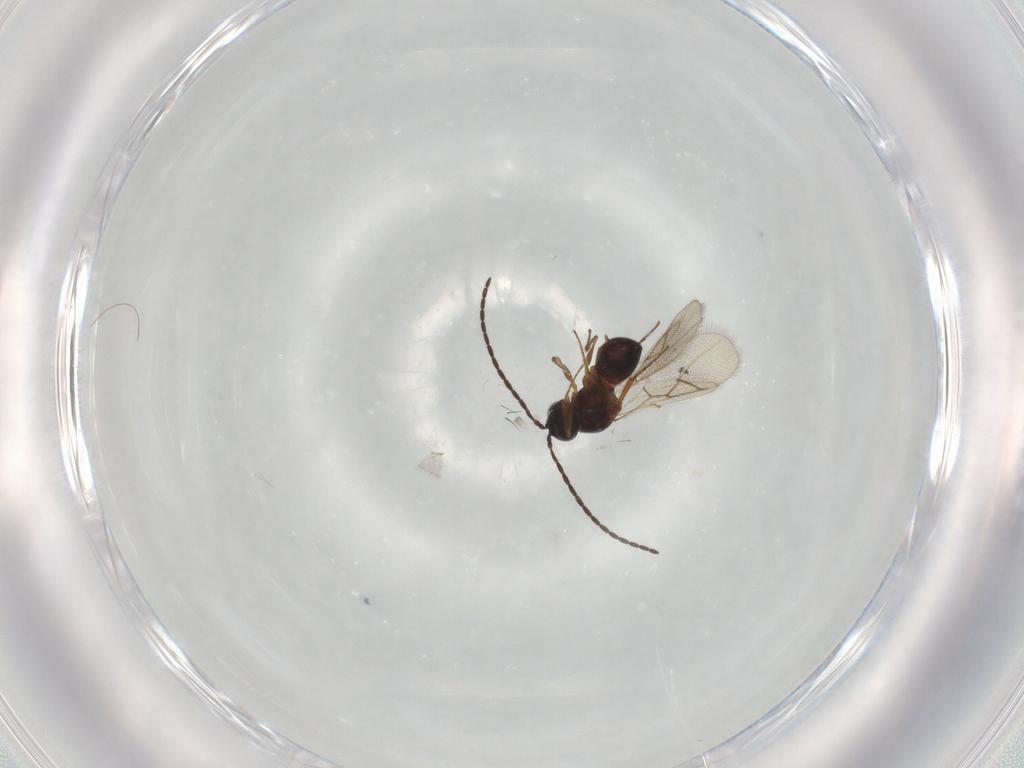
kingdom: Animalia
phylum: Arthropoda
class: Insecta
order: Hymenoptera
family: Figitidae
